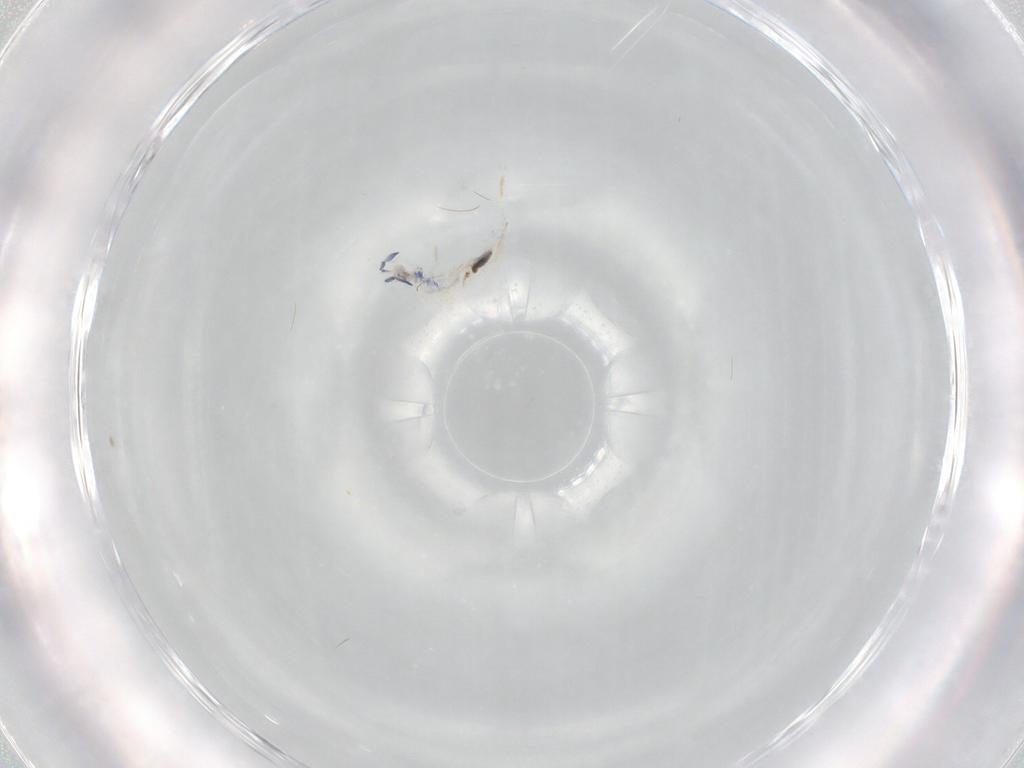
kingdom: Animalia
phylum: Arthropoda
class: Collembola
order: Entomobryomorpha
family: Entomobryidae
